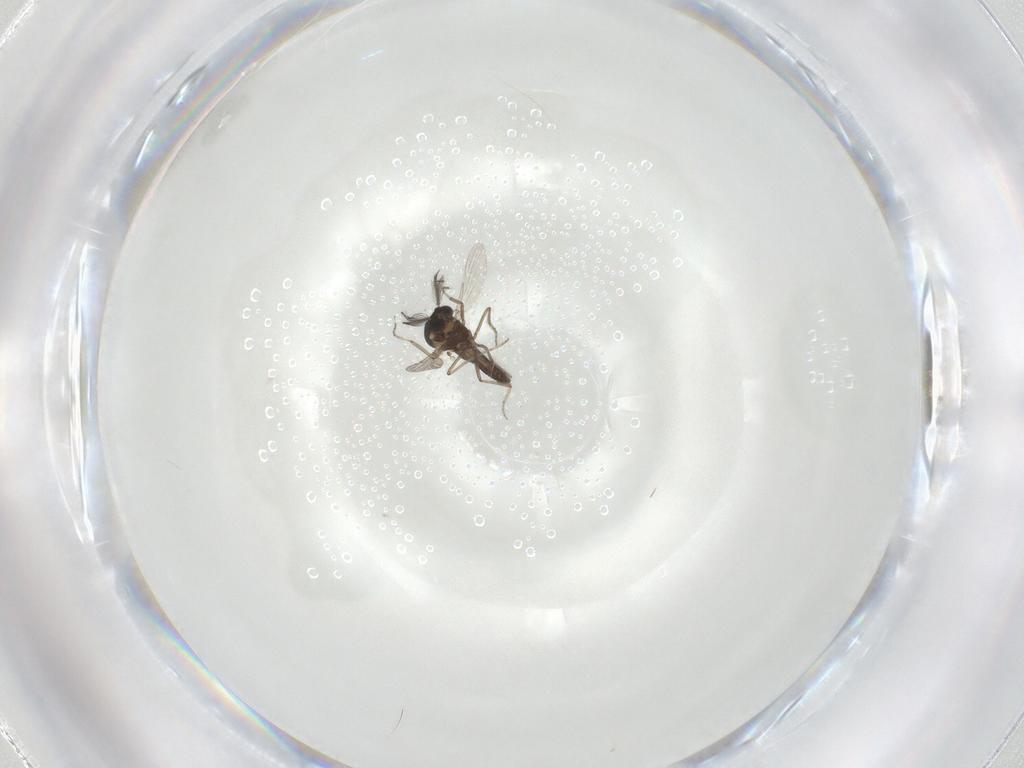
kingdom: Animalia
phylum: Arthropoda
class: Insecta
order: Diptera
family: Ceratopogonidae
